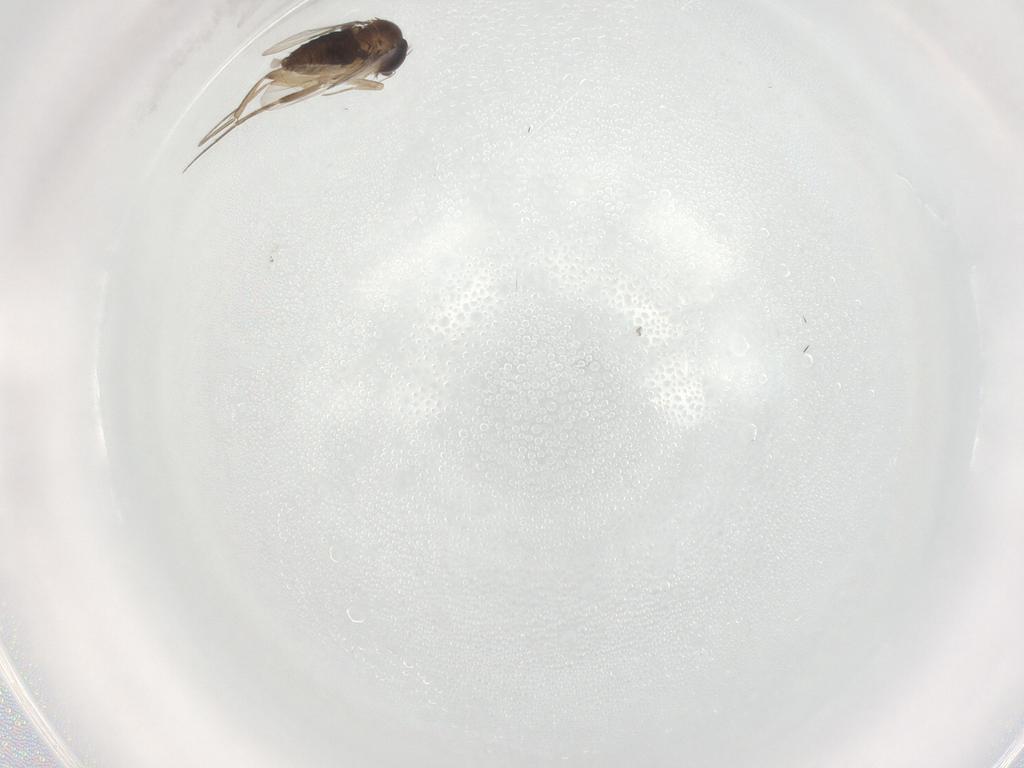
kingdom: Animalia
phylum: Arthropoda
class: Insecta
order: Diptera
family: Phoridae
